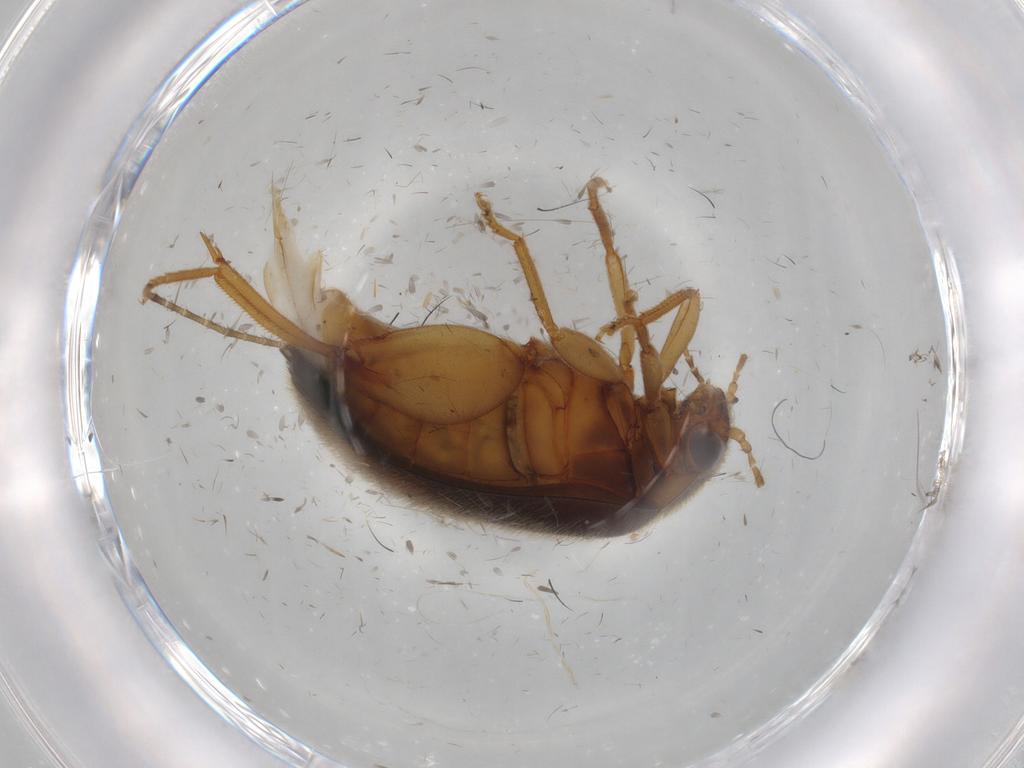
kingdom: Animalia
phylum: Arthropoda
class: Insecta
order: Coleoptera
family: Scirtidae
